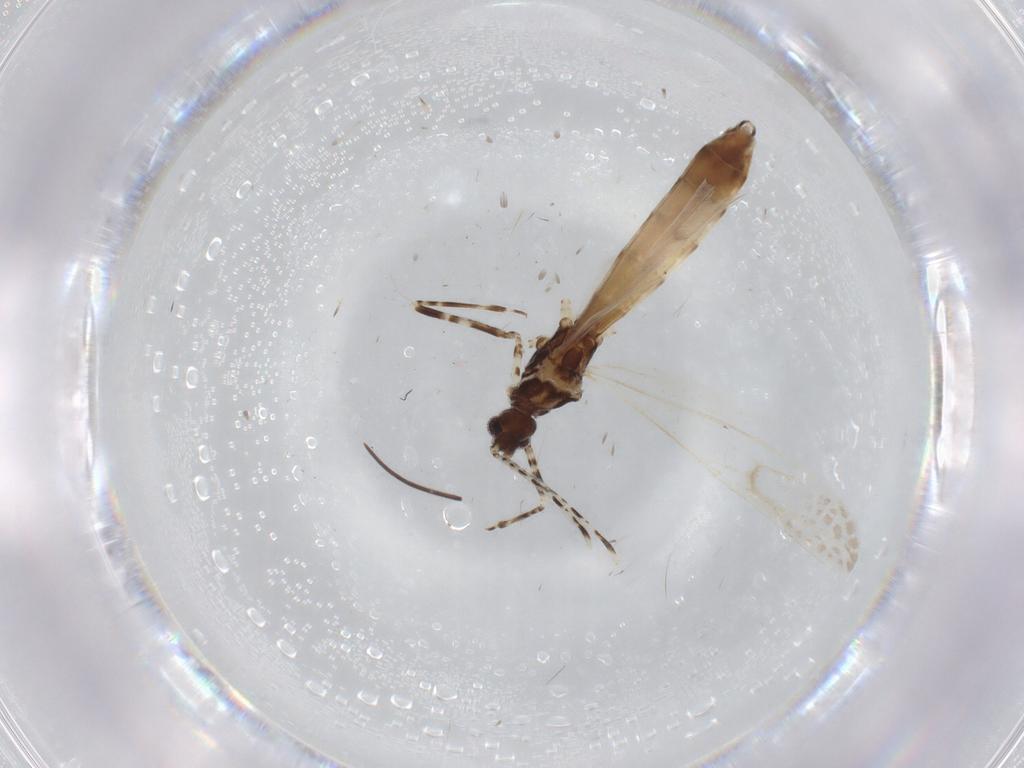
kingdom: Animalia
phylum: Arthropoda
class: Insecta
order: Hemiptera
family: Reduviidae
